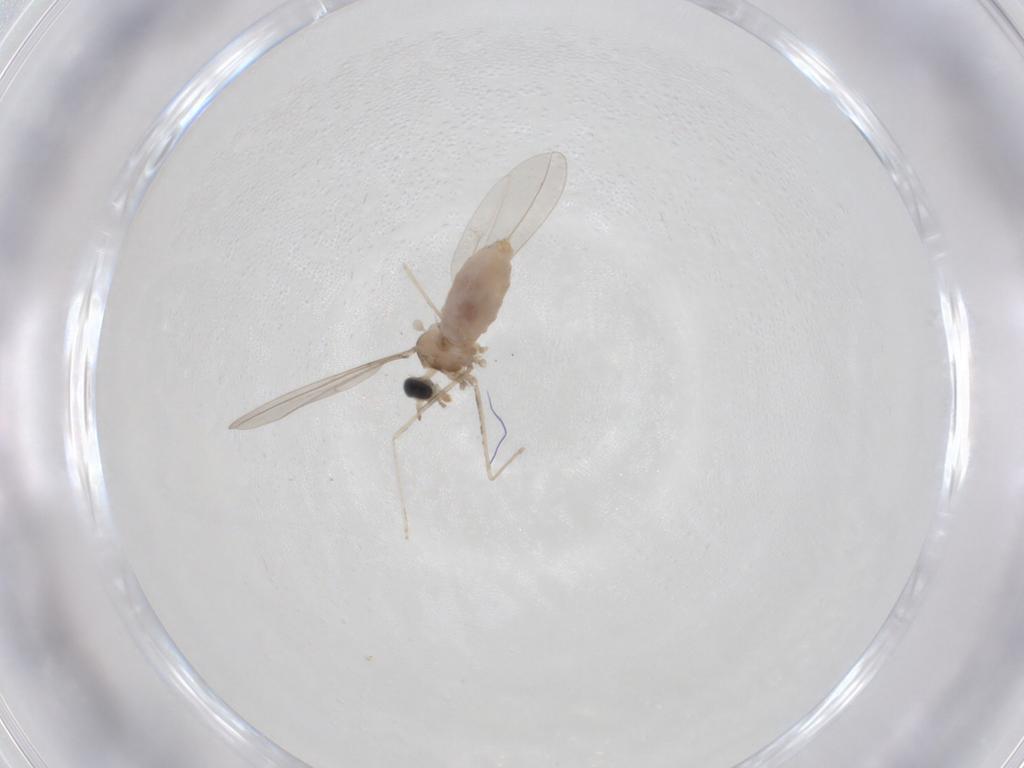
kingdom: Animalia
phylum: Arthropoda
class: Insecta
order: Diptera
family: Cecidomyiidae
